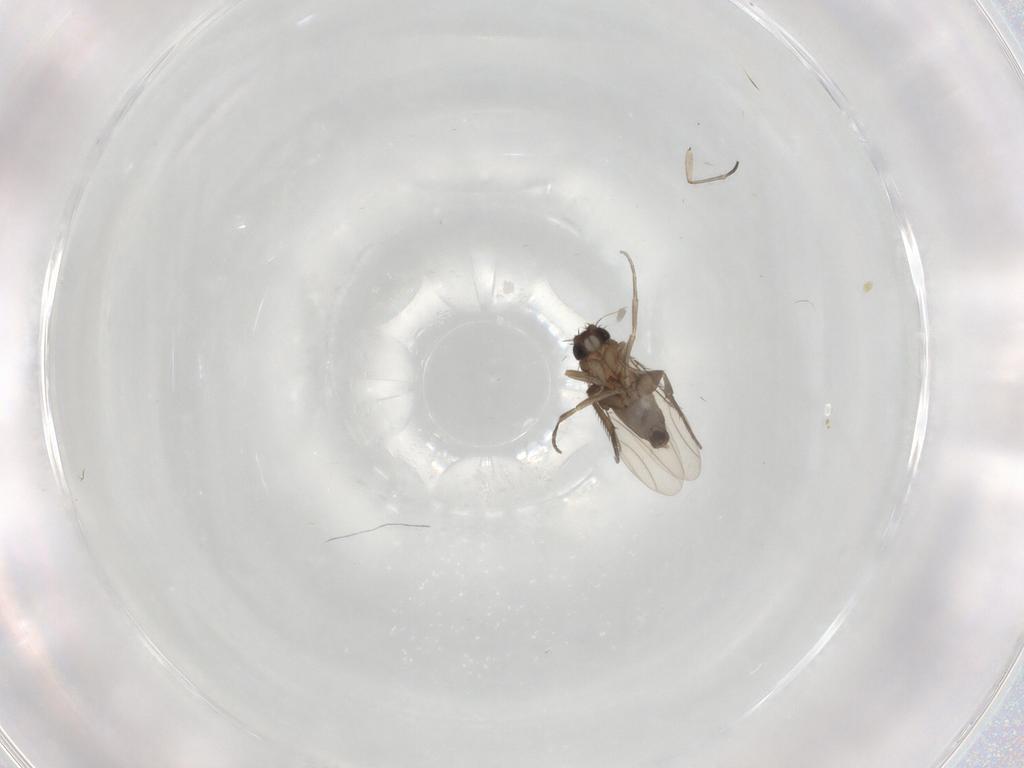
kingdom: Animalia
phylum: Arthropoda
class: Insecta
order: Diptera
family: Phoridae
